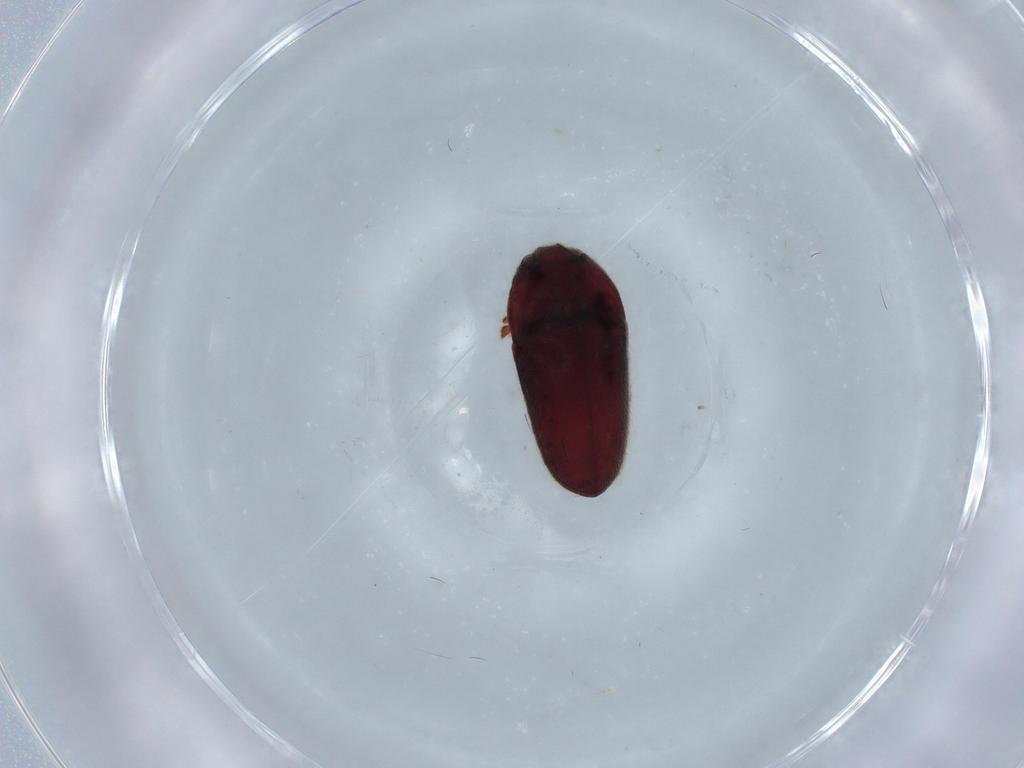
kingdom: Animalia
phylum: Arthropoda
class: Insecta
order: Coleoptera
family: Throscidae
